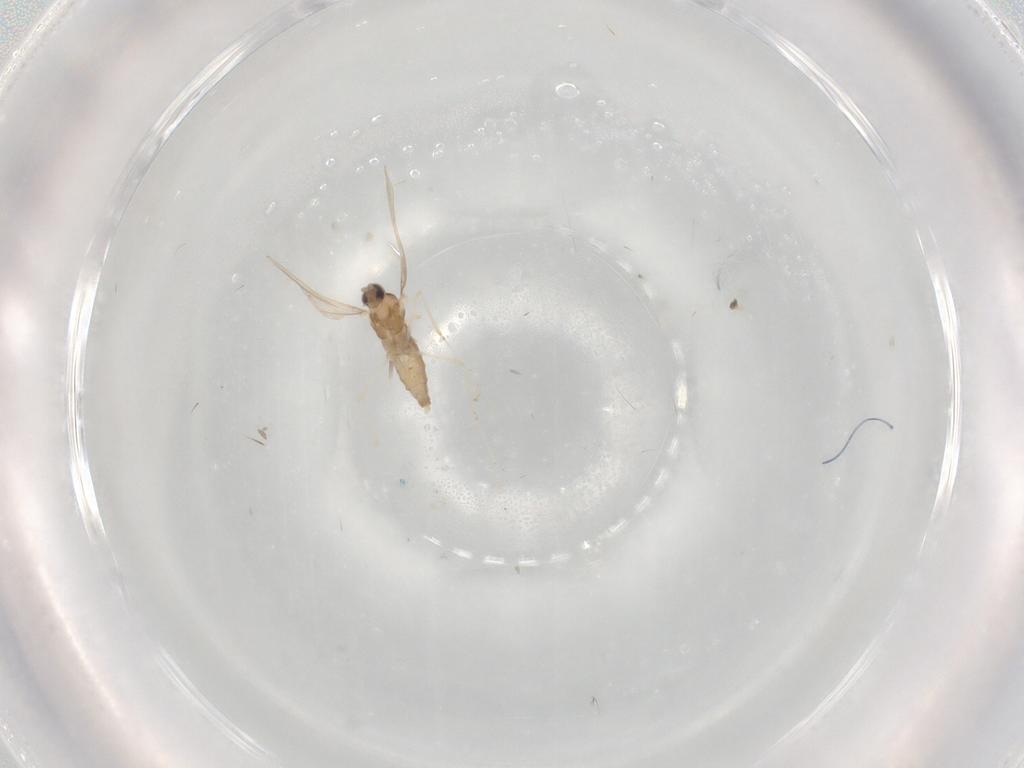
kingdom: Animalia
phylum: Arthropoda
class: Insecta
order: Diptera
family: Cecidomyiidae
